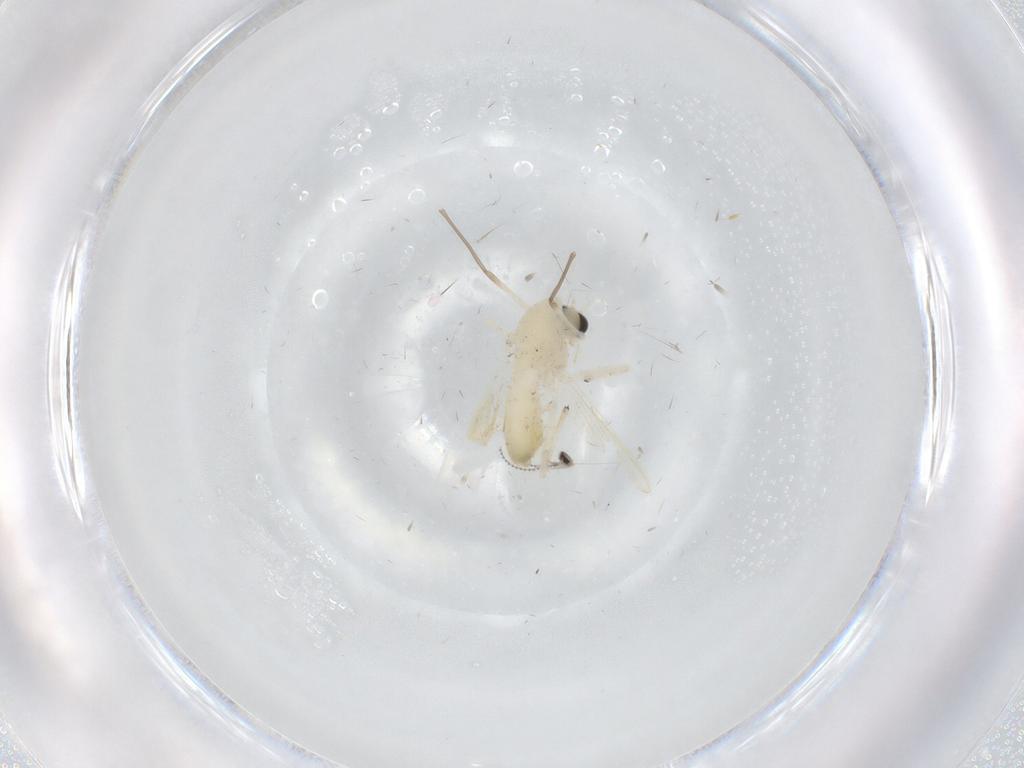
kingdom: Animalia
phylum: Arthropoda
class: Insecta
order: Diptera
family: Chironomidae
